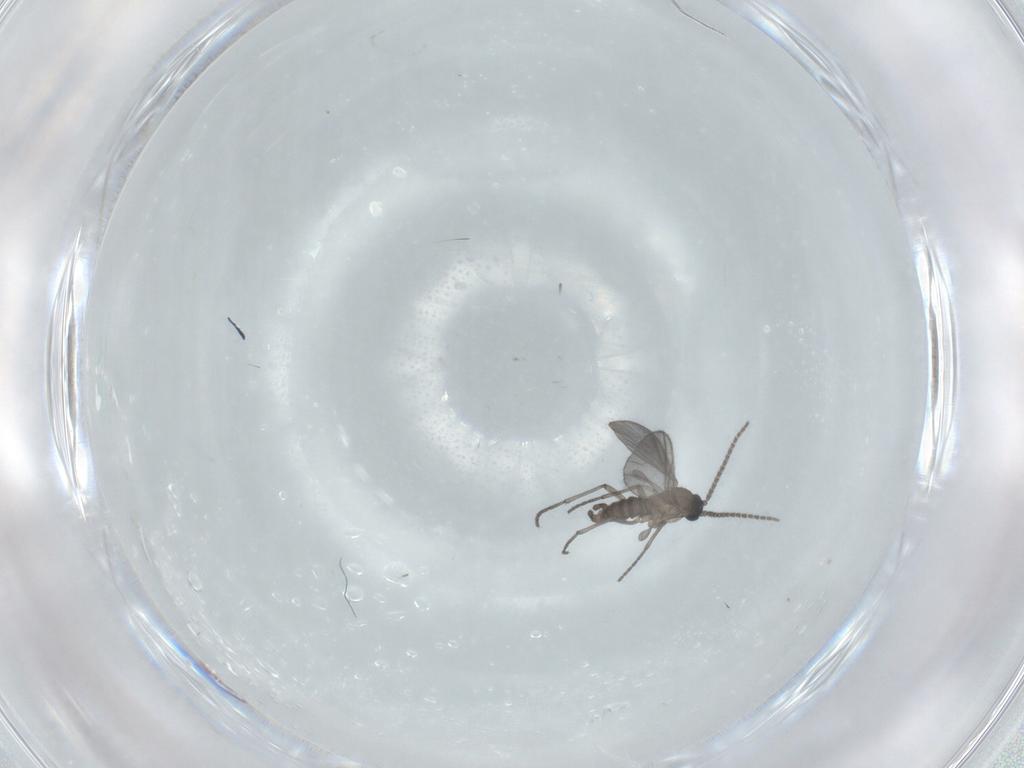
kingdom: Animalia
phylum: Arthropoda
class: Insecta
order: Diptera
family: Sciaridae
